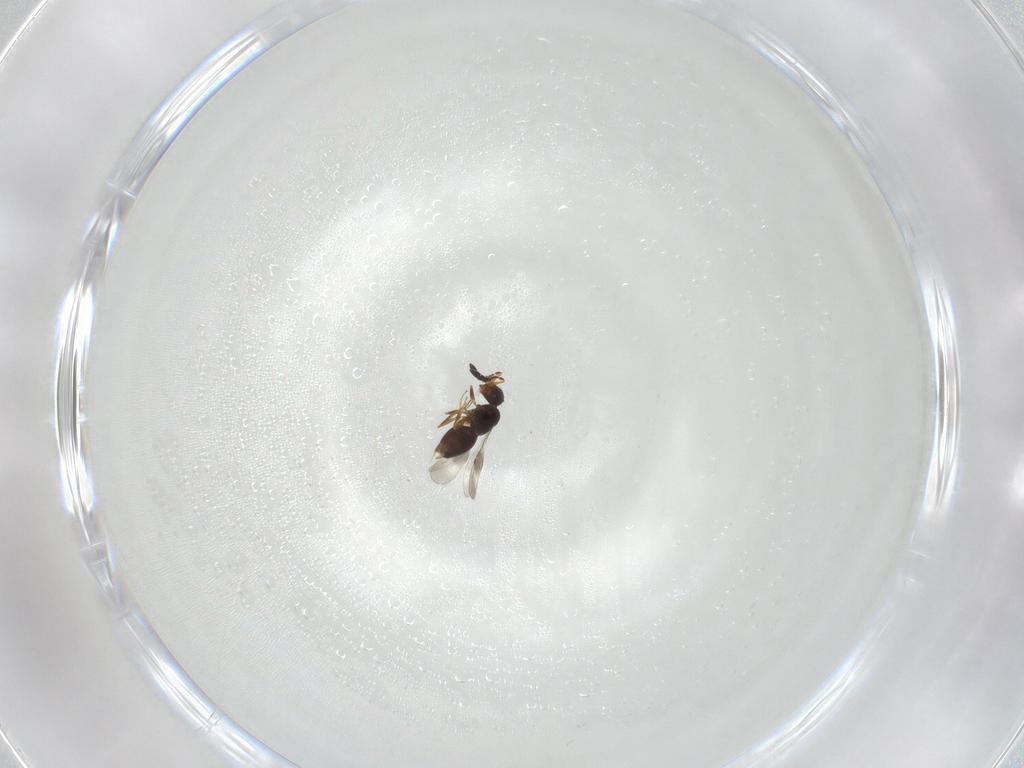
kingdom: Animalia
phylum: Arthropoda
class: Insecta
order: Hymenoptera
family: Ceraphronidae
